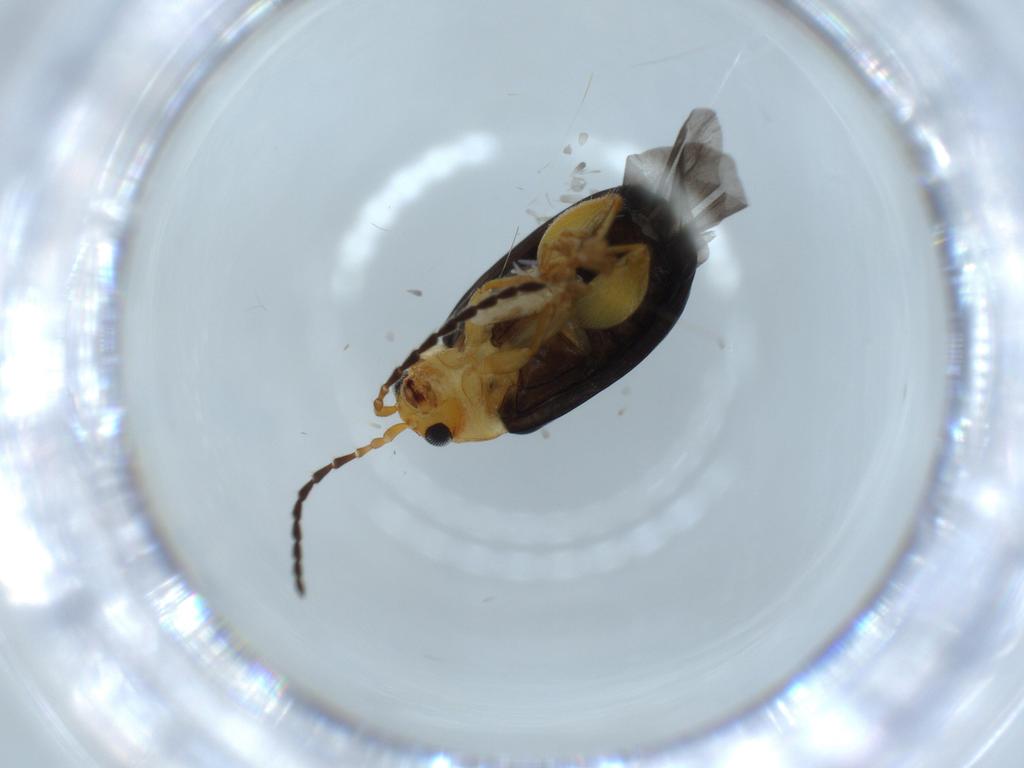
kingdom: Animalia
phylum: Arthropoda
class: Insecta
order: Coleoptera
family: Chrysomelidae
